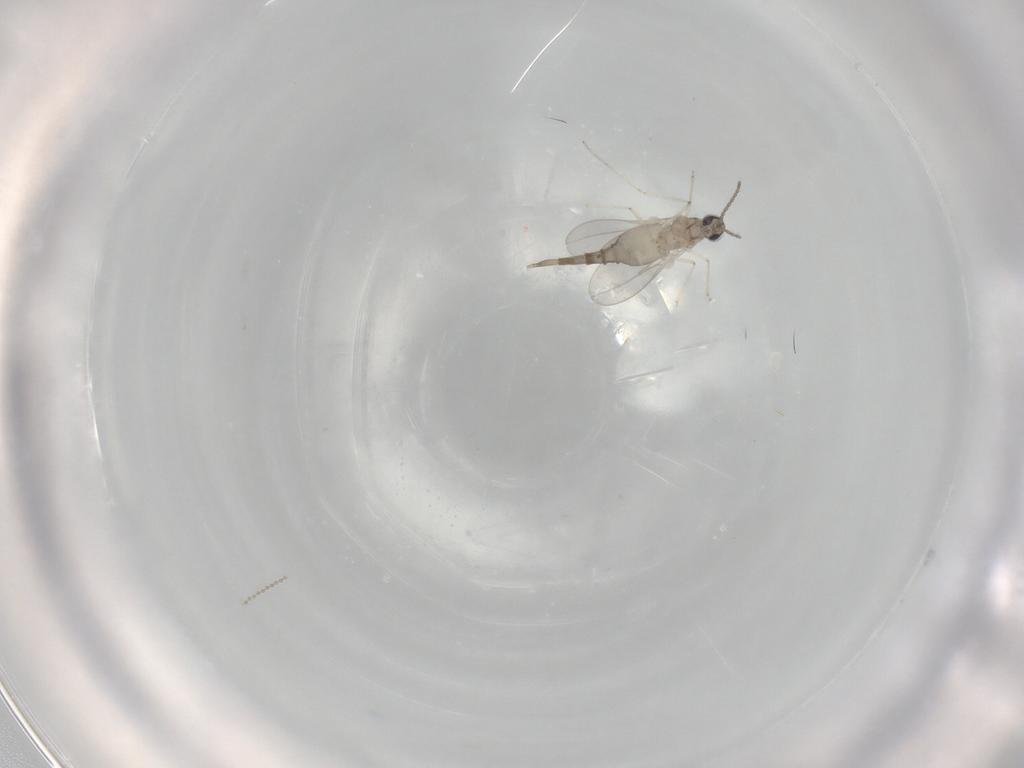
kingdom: Animalia
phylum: Arthropoda
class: Insecta
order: Diptera
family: Cecidomyiidae
